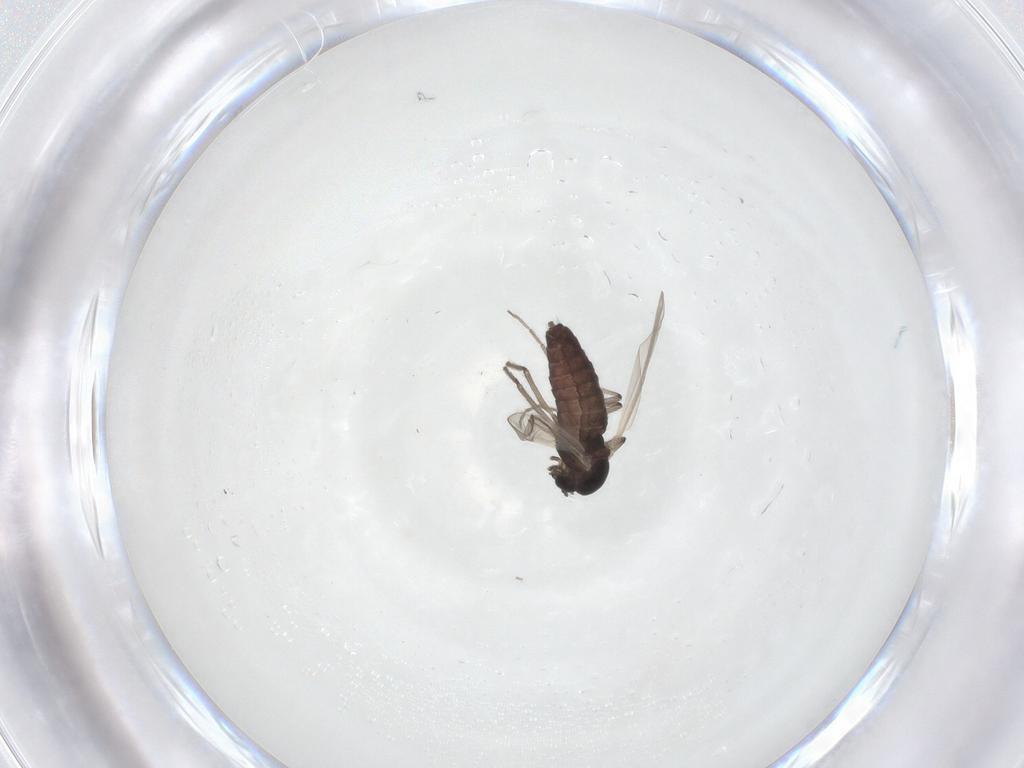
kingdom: Animalia
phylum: Arthropoda
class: Insecta
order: Diptera
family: Chironomidae
